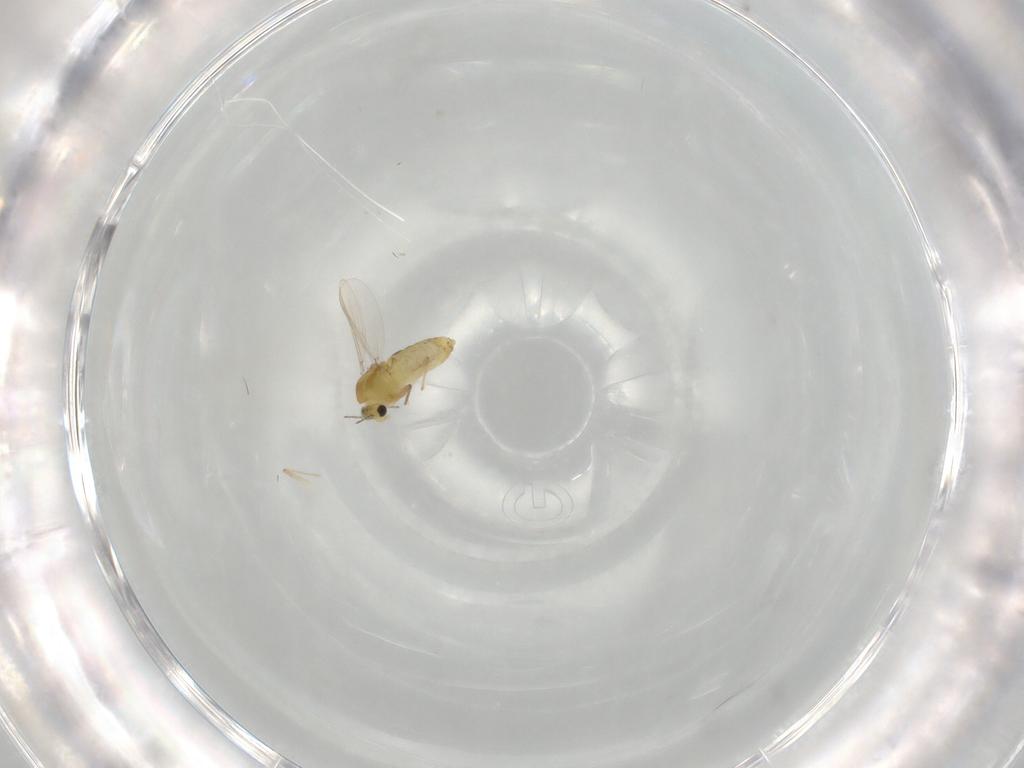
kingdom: Animalia
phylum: Arthropoda
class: Insecta
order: Diptera
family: Chironomidae
